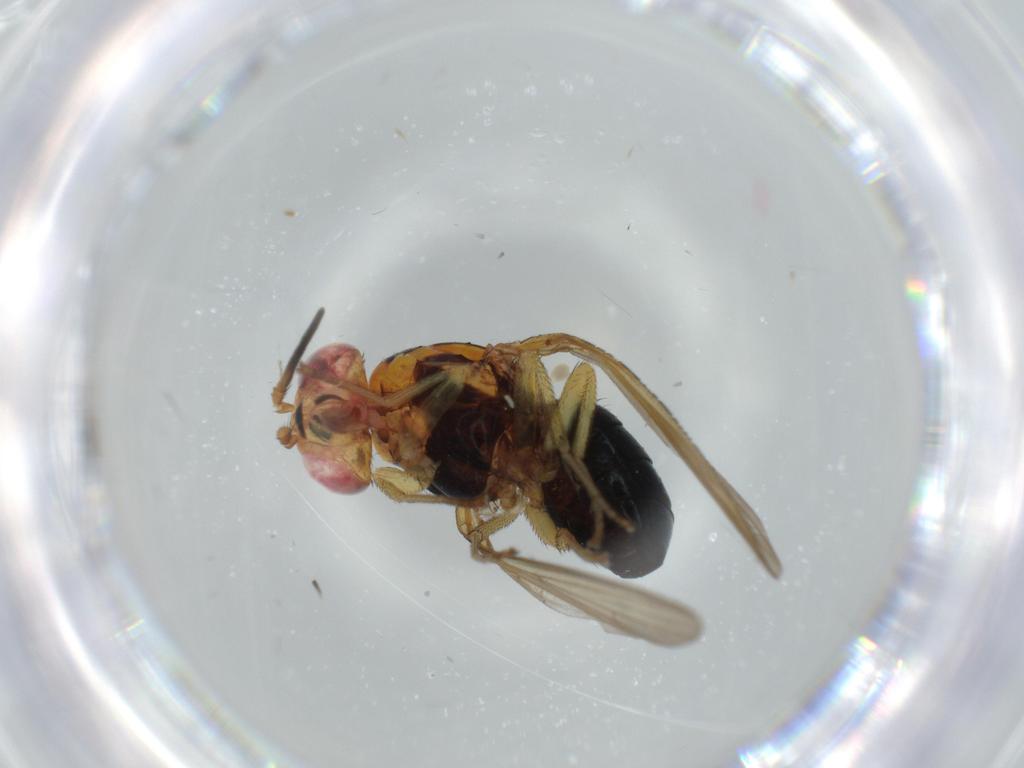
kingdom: Animalia
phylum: Arthropoda
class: Insecta
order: Diptera
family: Lauxaniidae
